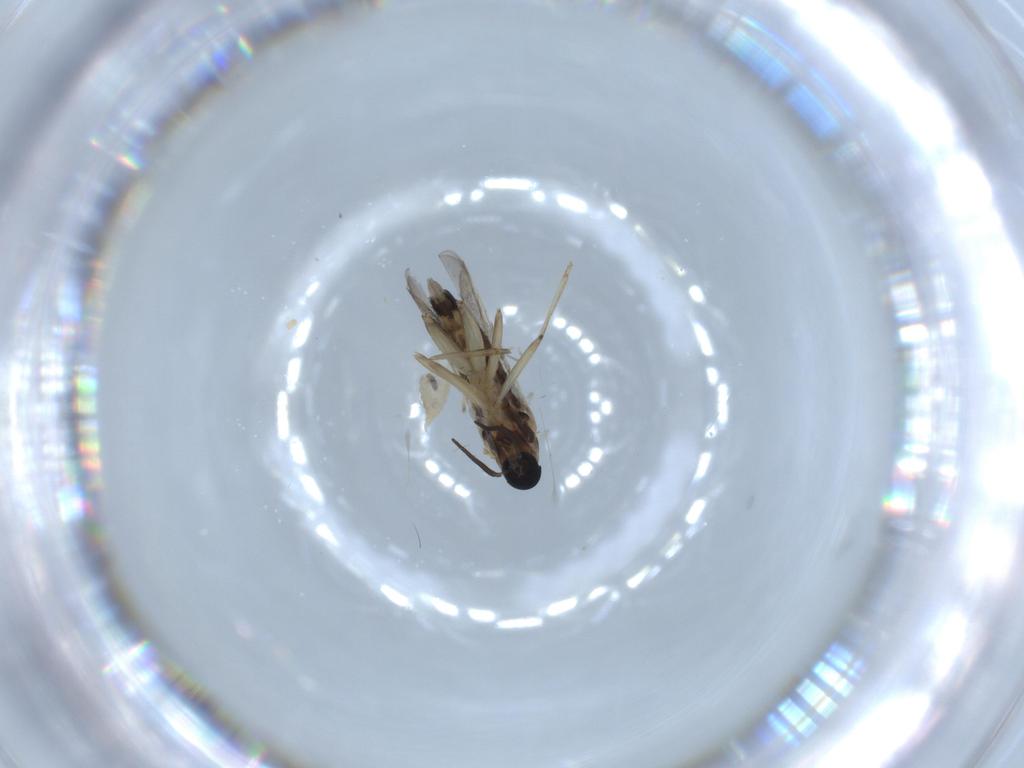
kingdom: Animalia
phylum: Arthropoda
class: Insecta
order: Diptera
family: Cecidomyiidae
